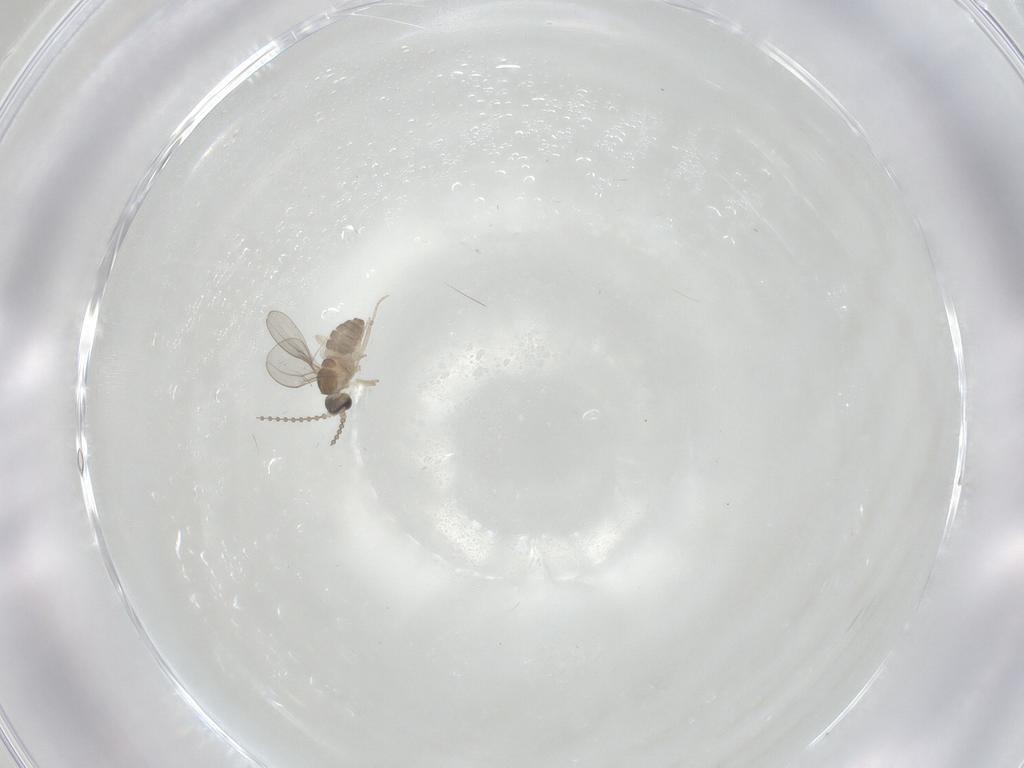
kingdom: Animalia
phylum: Arthropoda
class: Insecta
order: Diptera
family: Cecidomyiidae
